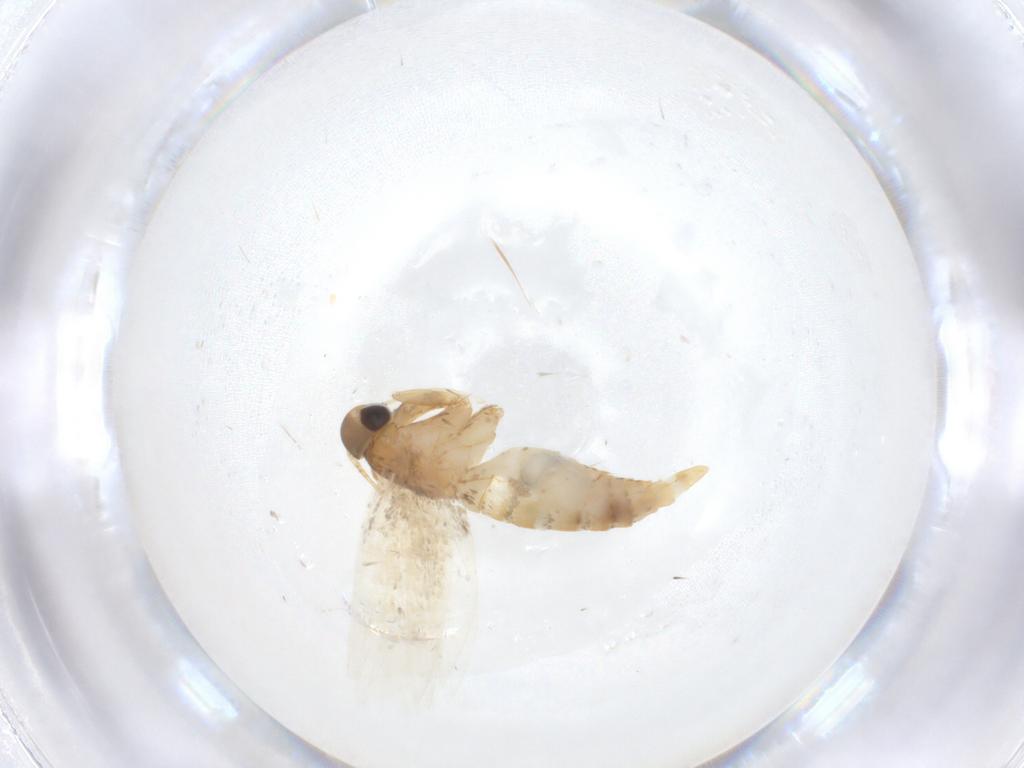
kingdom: Animalia
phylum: Arthropoda
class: Insecta
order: Lepidoptera
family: Oecophoridae
